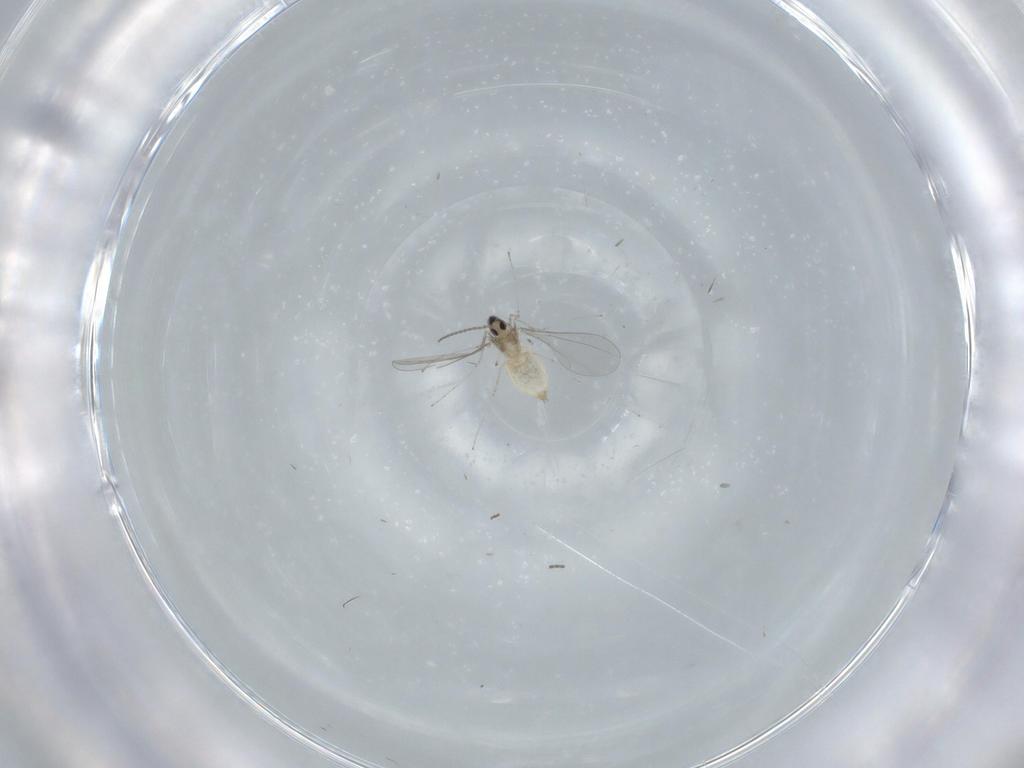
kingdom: Animalia
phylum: Arthropoda
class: Insecta
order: Diptera
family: Cecidomyiidae
